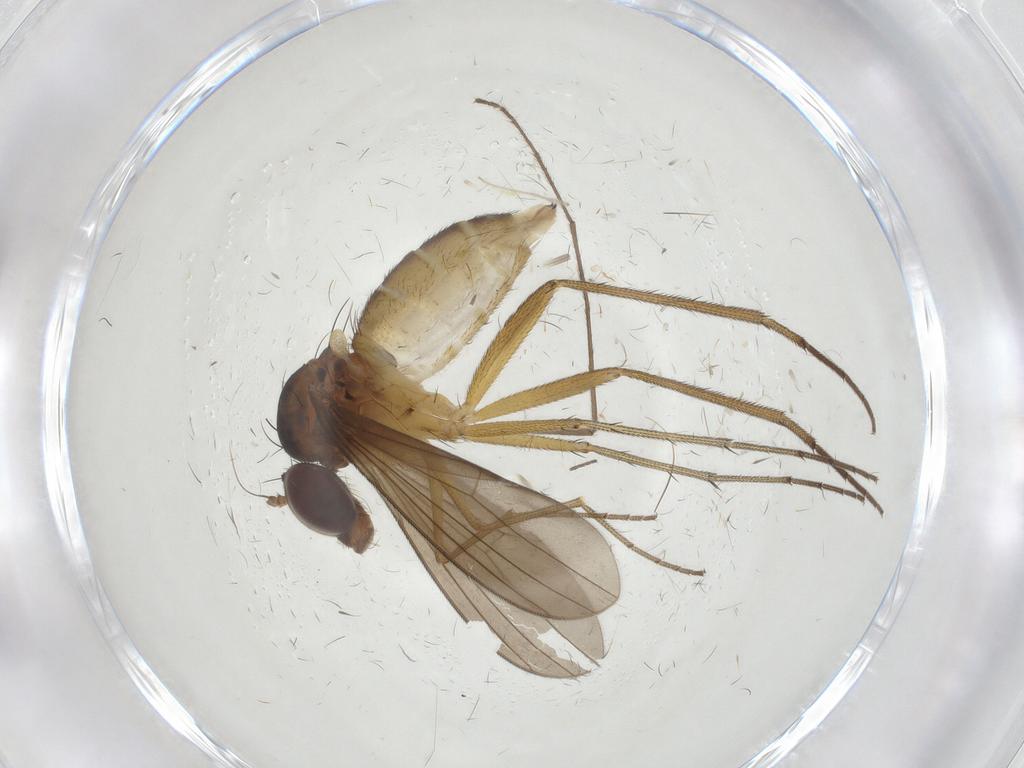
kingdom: Animalia
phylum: Arthropoda
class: Insecta
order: Diptera
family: Dolichopodidae
